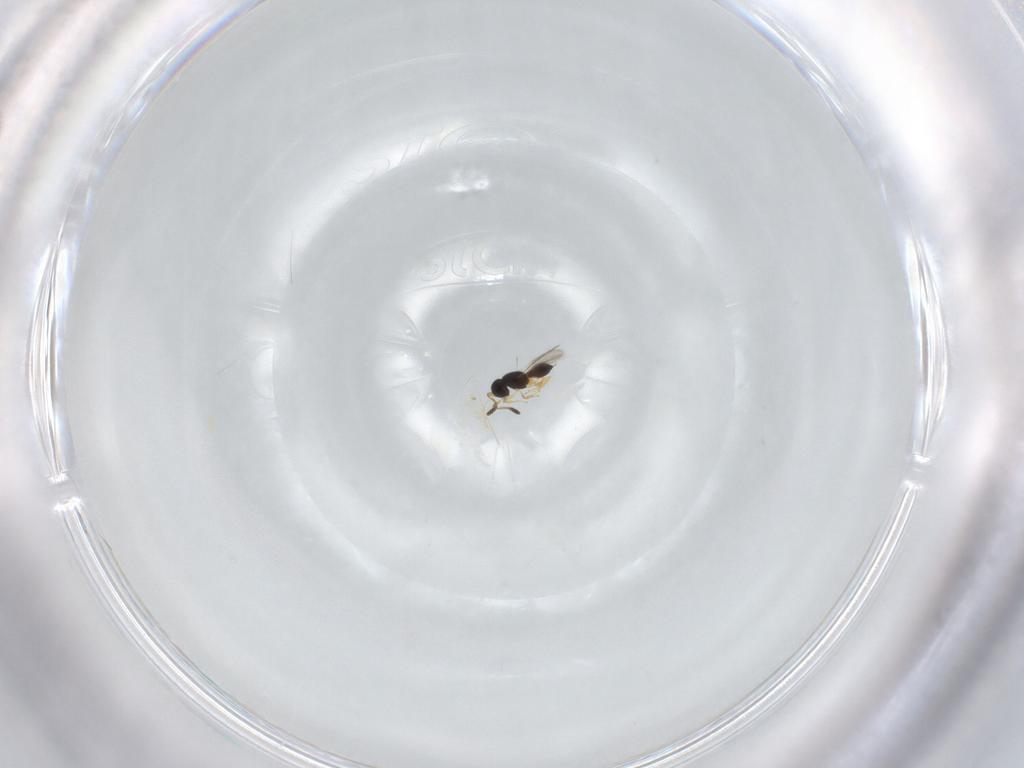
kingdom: Animalia
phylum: Arthropoda
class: Insecta
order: Hymenoptera
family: Scelionidae
